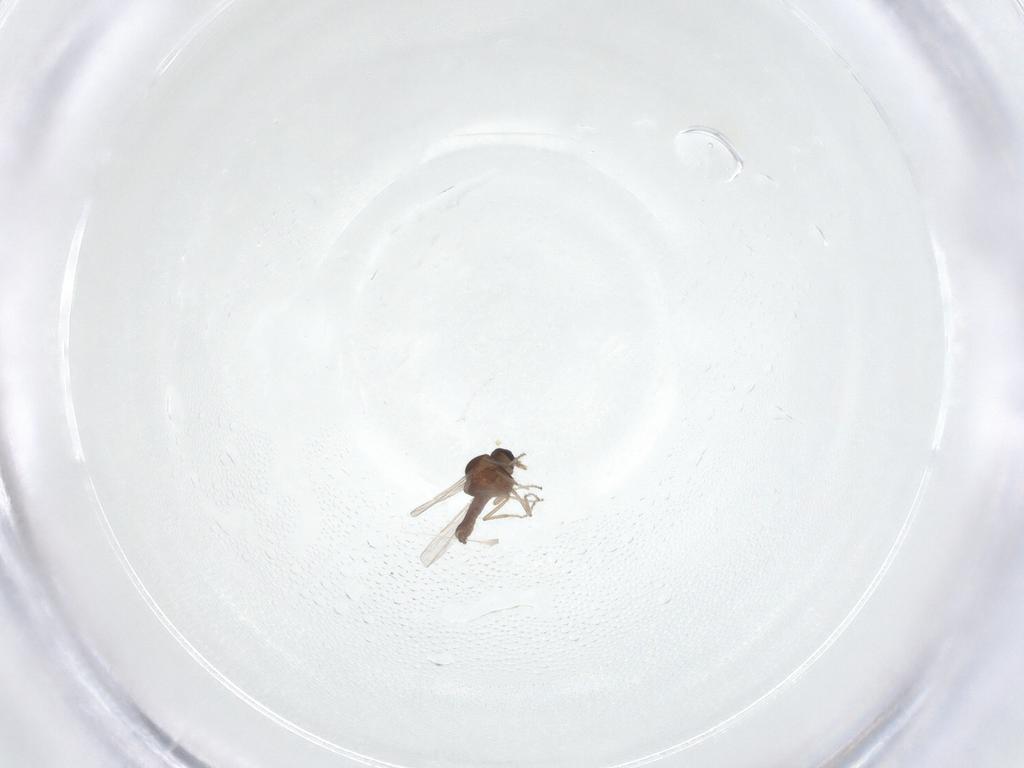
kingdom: Animalia
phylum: Arthropoda
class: Insecta
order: Diptera
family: Ceratopogonidae
